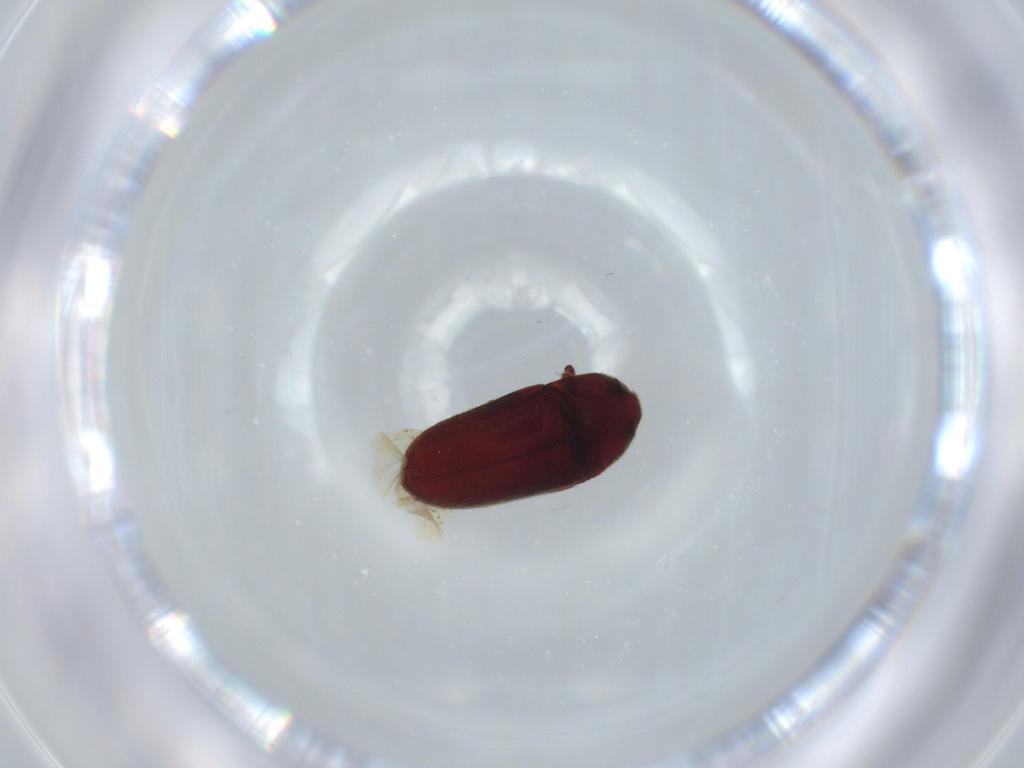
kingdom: Animalia
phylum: Arthropoda
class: Insecta
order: Coleoptera
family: Throscidae
